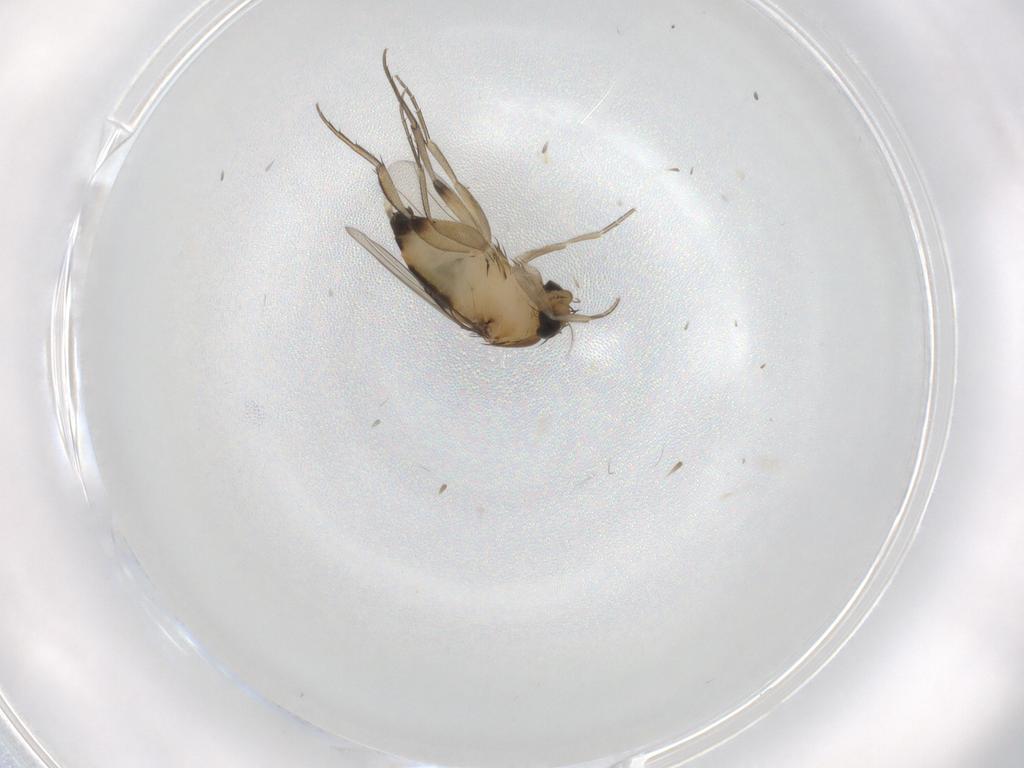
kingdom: Animalia
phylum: Arthropoda
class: Insecta
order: Diptera
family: Phoridae
